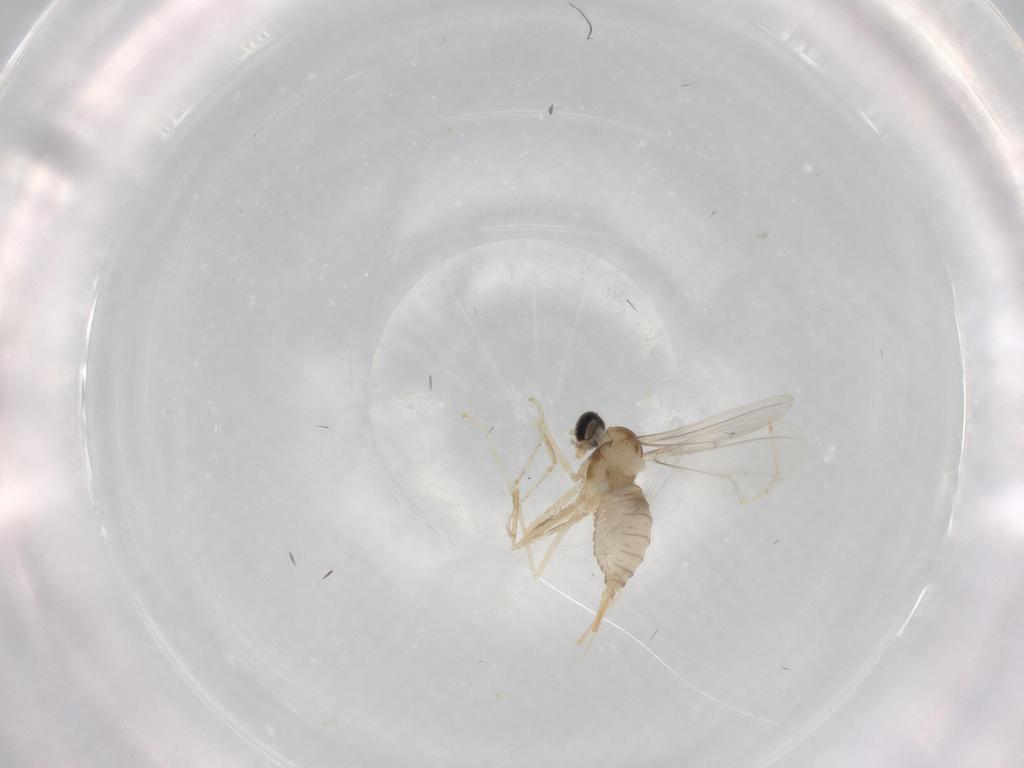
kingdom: Animalia
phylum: Arthropoda
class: Insecta
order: Diptera
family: Cecidomyiidae
